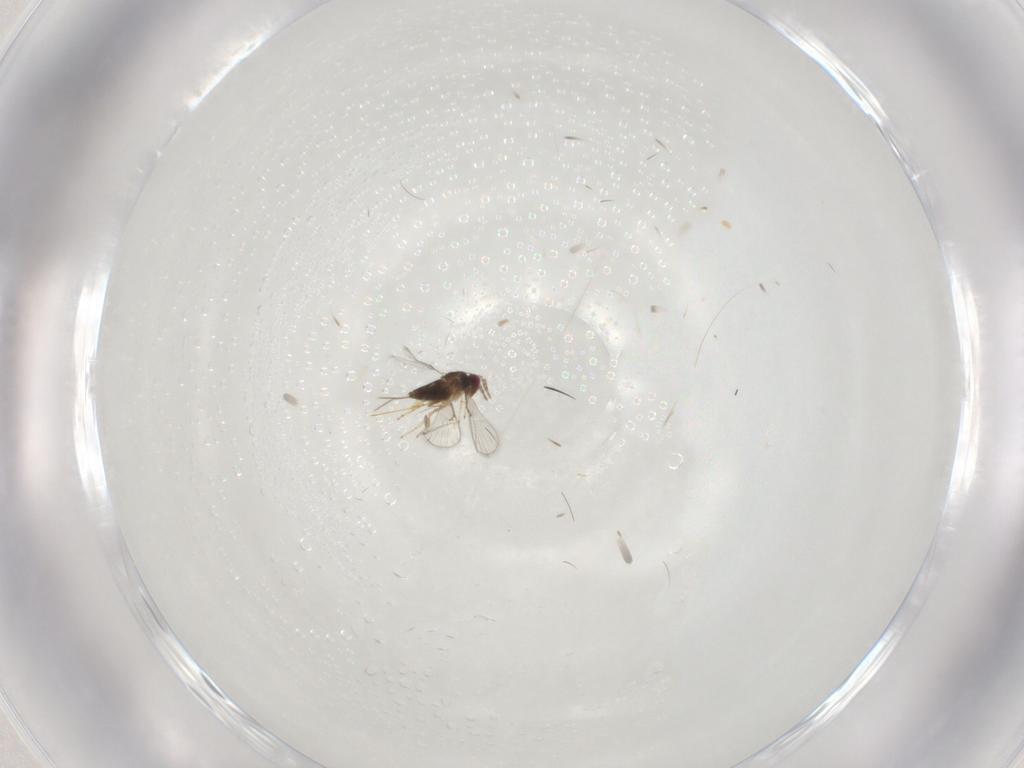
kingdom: Animalia
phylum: Arthropoda
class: Insecta
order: Hymenoptera
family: Trichogrammatidae
